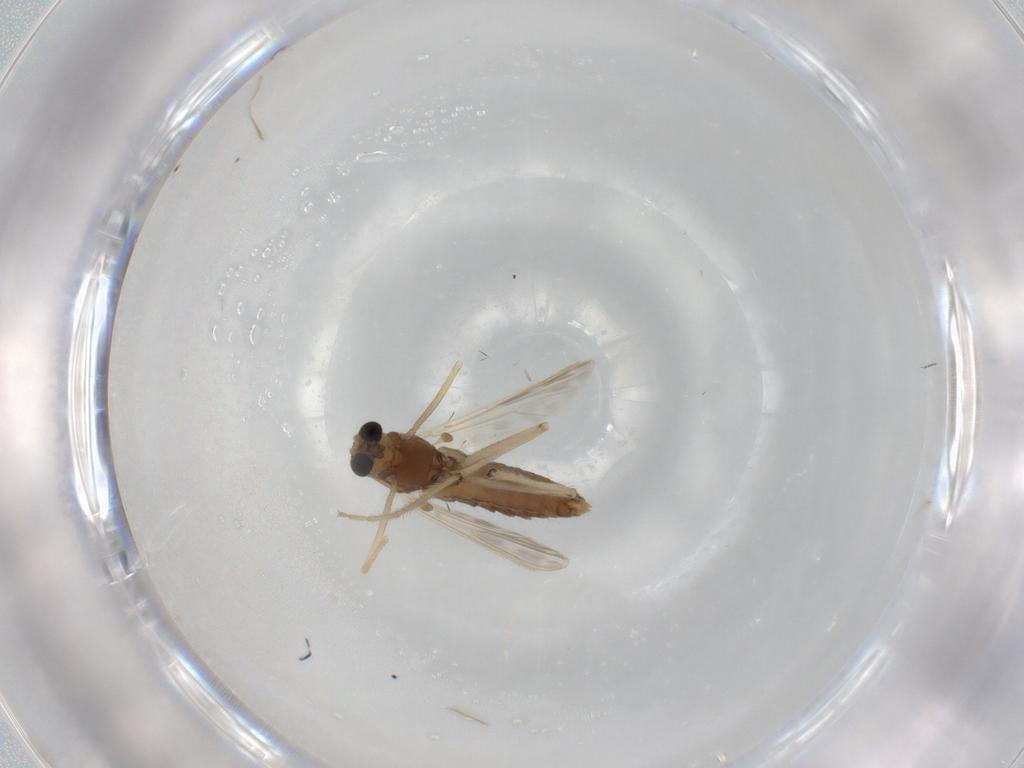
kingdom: Animalia
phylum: Arthropoda
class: Insecta
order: Diptera
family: Chironomidae
